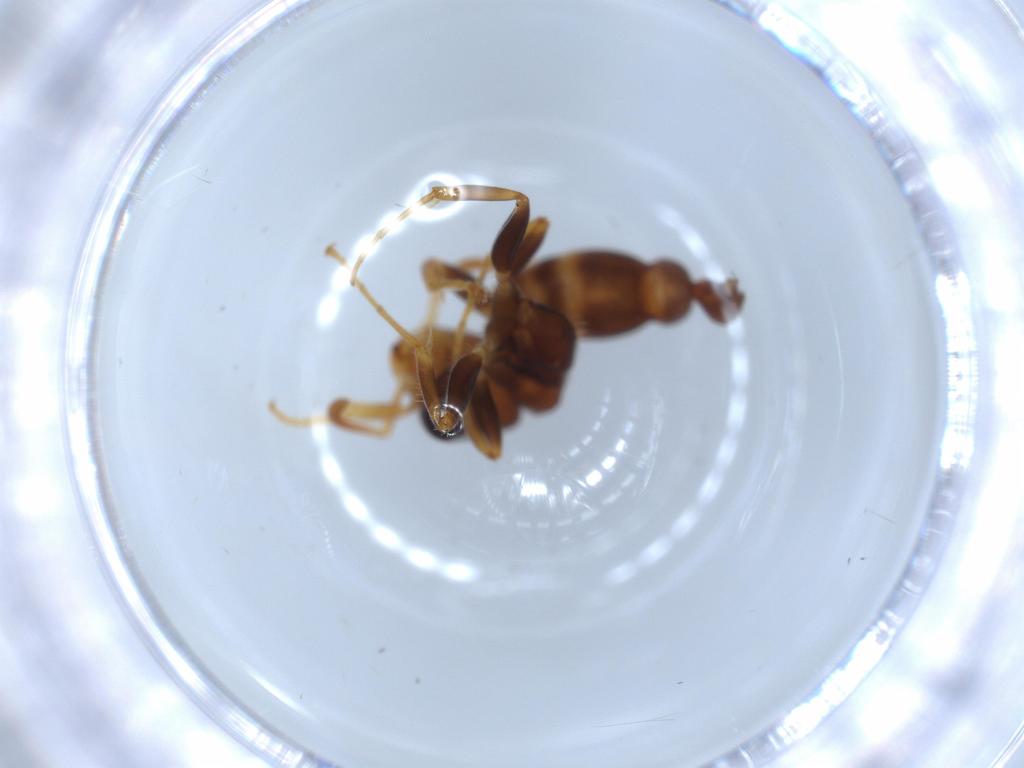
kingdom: Animalia
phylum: Arthropoda
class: Insecta
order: Hymenoptera
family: Formicidae
